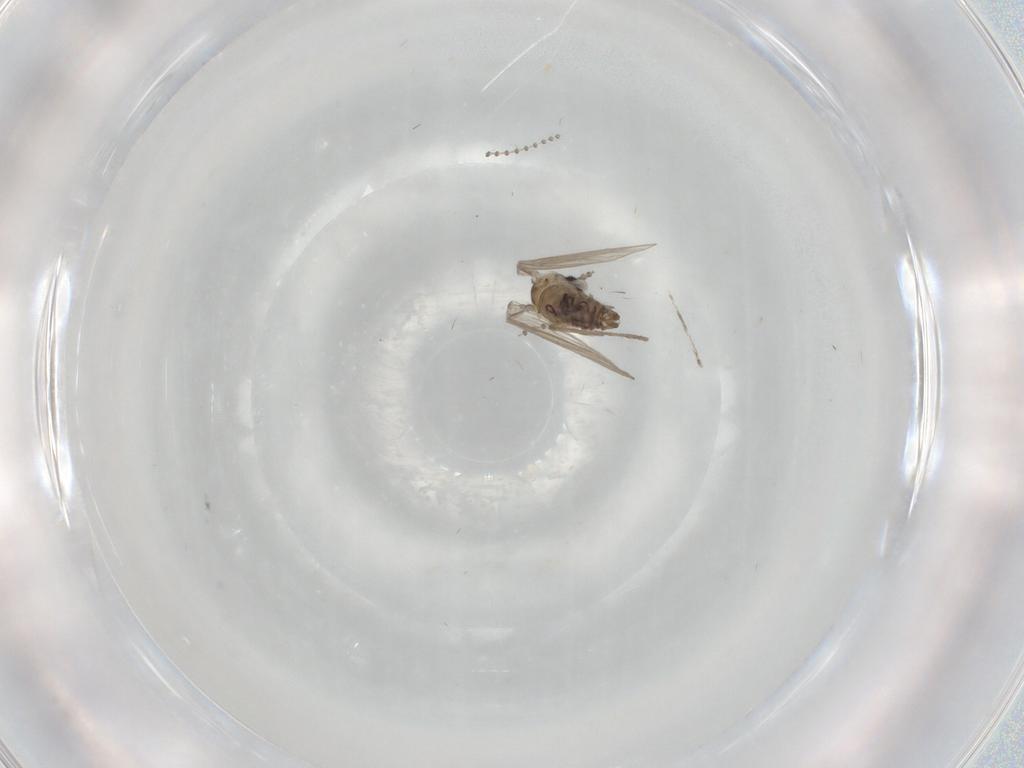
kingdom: Animalia
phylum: Arthropoda
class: Insecta
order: Diptera
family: Psychodidae
